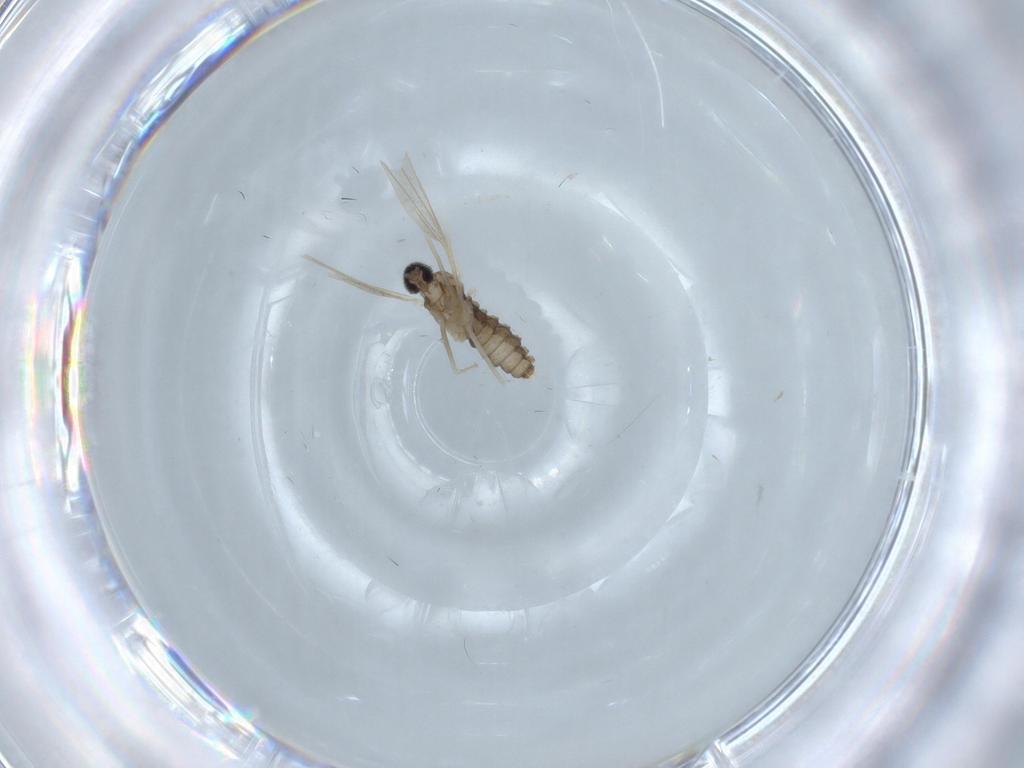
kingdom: Animalia
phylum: Arthropoda
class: Insecta
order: Diptera
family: Cecidomyiidae
